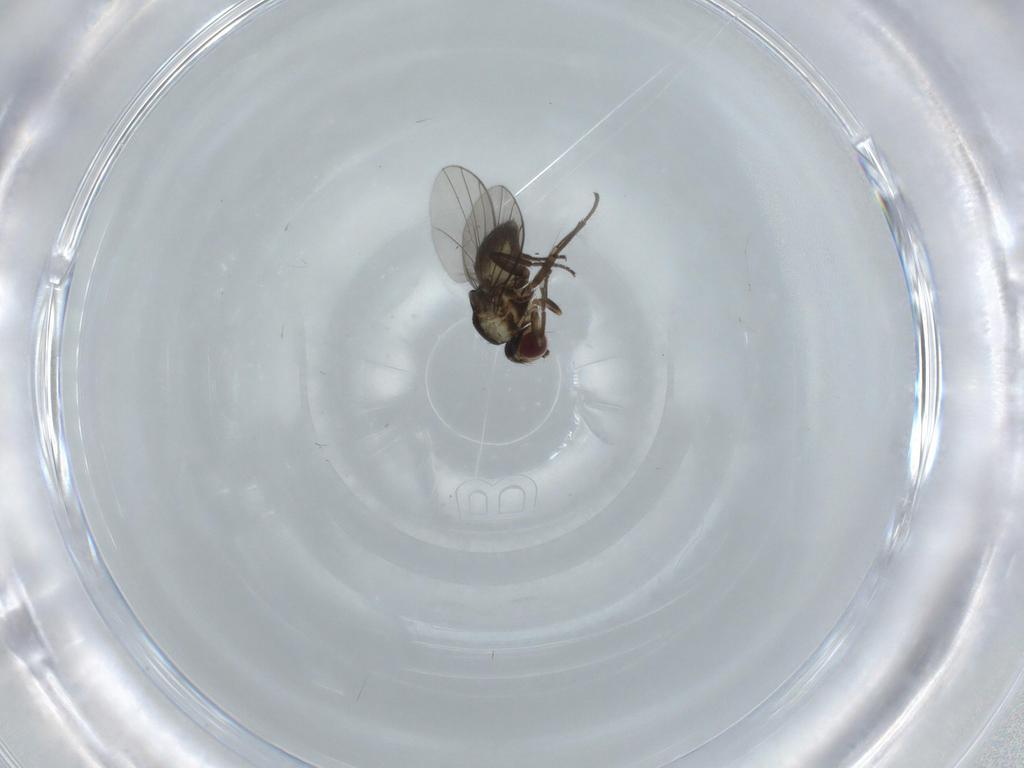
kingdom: Animalia
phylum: Arthropoda
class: Insecta
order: Diptera
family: Agromyzidae
